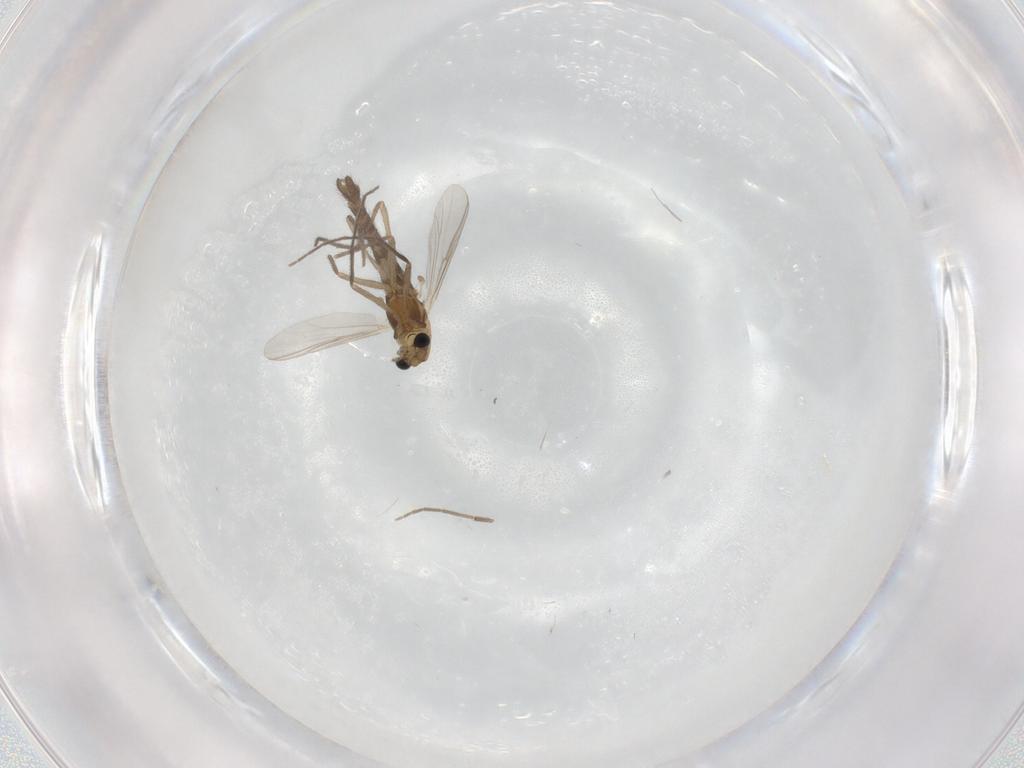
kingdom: Animalia
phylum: Arthropoda
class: Insecta
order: Diptera
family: Chironomidae
